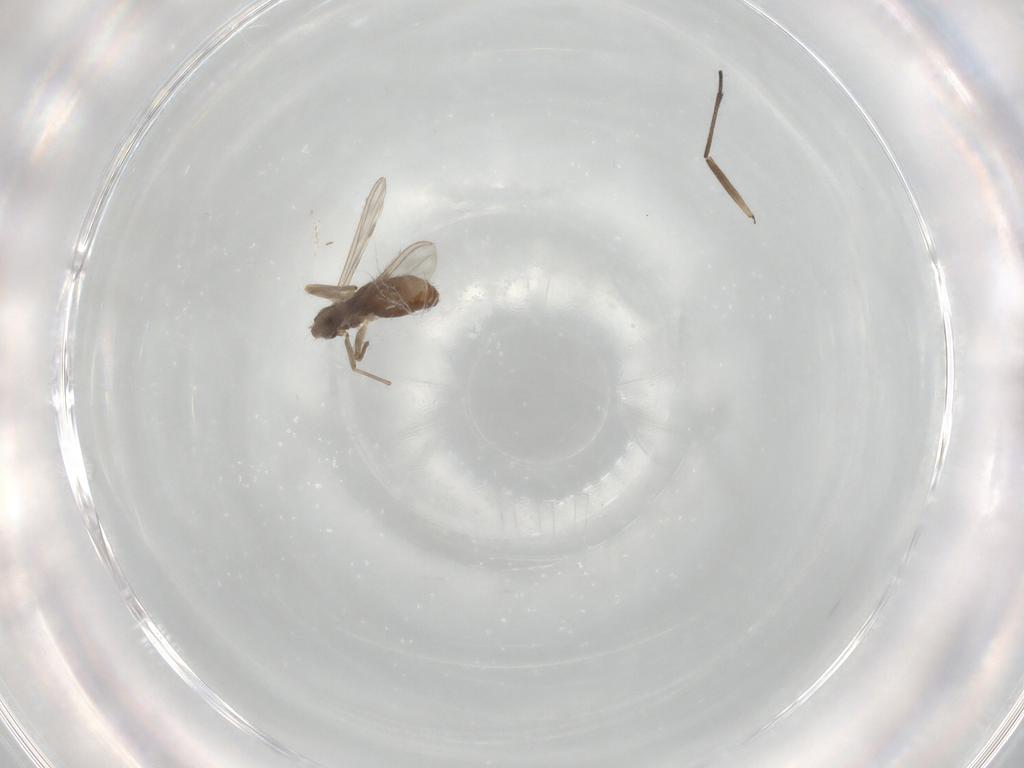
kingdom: Animalia
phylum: Arthropoda
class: Insecta
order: Diptera
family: Chironomidae
